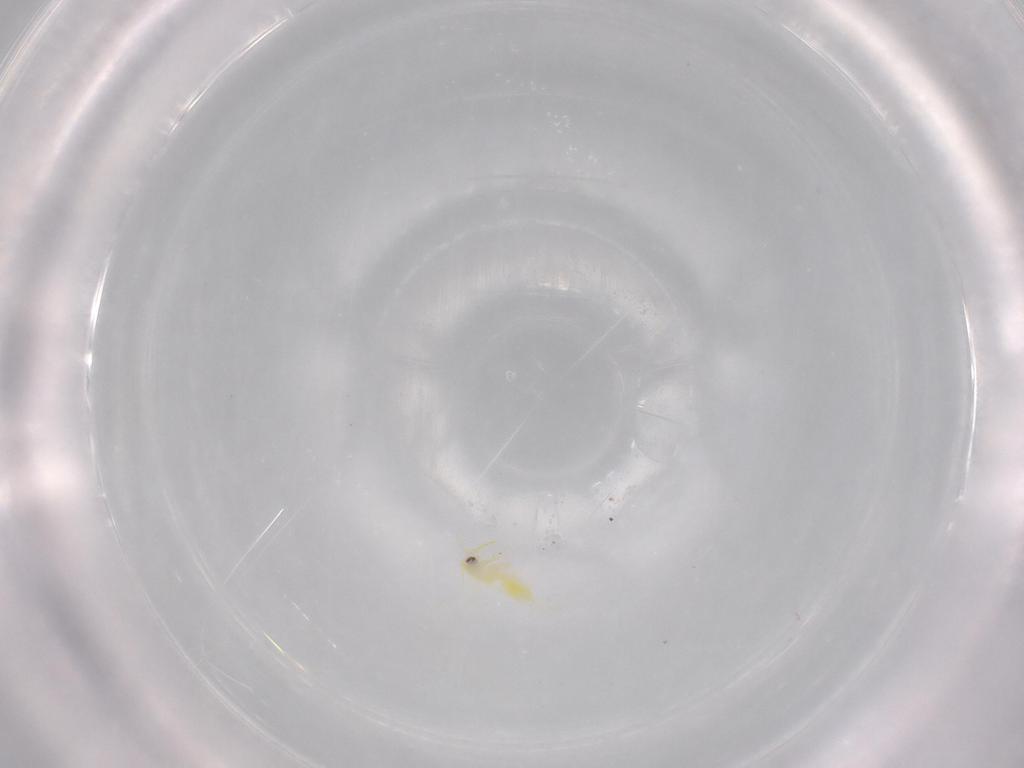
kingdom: Animalia
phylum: Arthropoda
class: Insecta
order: Hemiptera
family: Aleyrodidae
